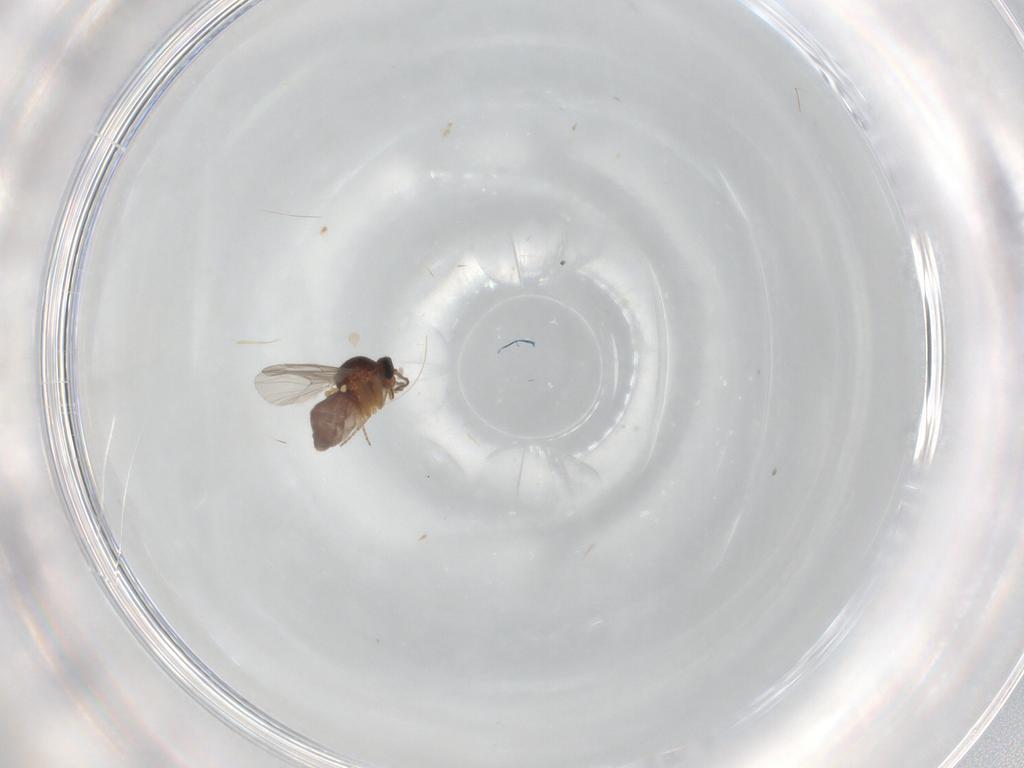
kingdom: Animalia
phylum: Arthropoda
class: Insecta
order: Diptera
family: Ceratopogonidae
